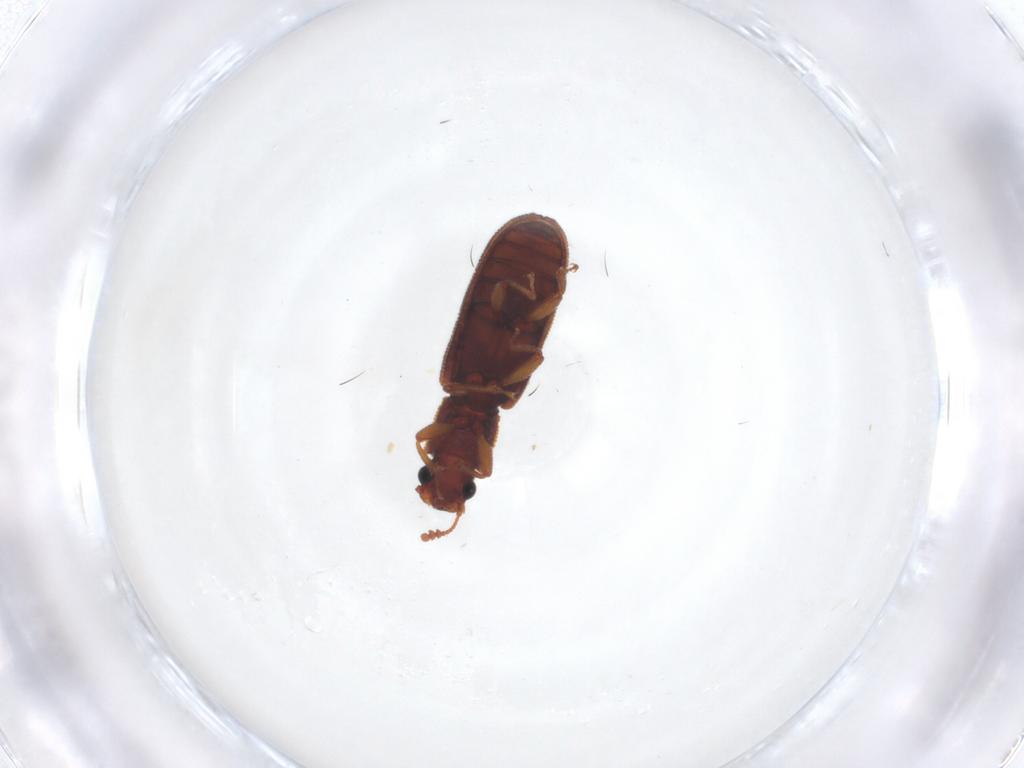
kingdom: Animalia
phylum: Arthropoda
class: Insecta
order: Coleoptera
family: Zopheridae
